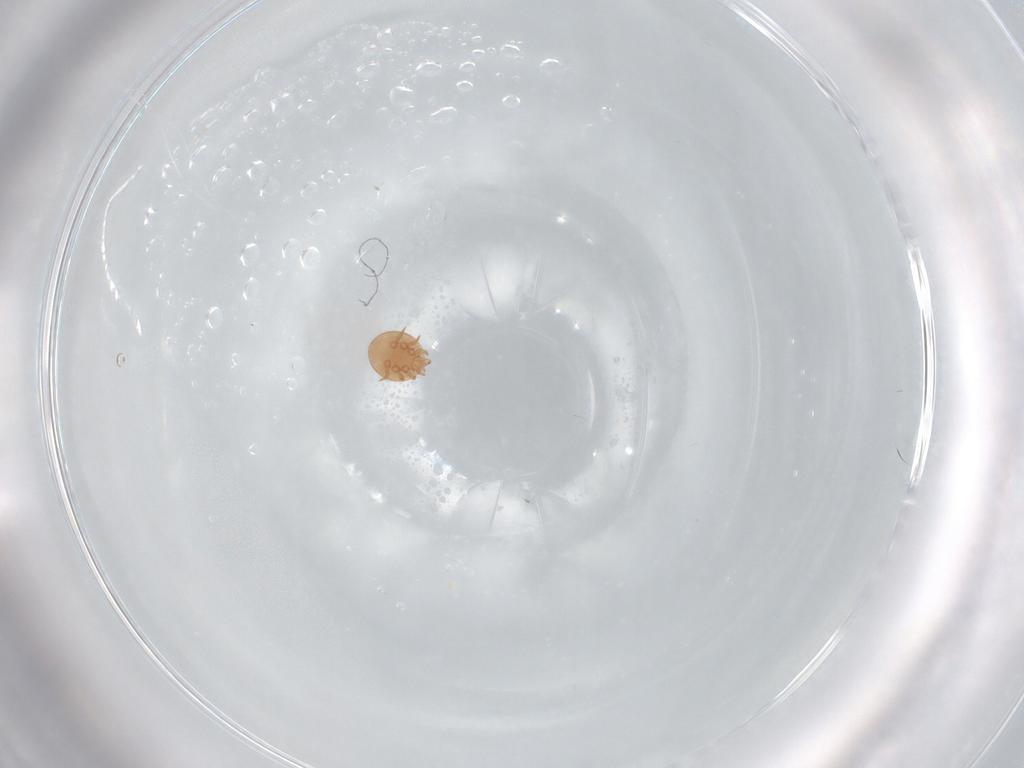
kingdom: Animalia
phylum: Arthropoda
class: Arachnida
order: Mesostigmata
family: Trematuridae
